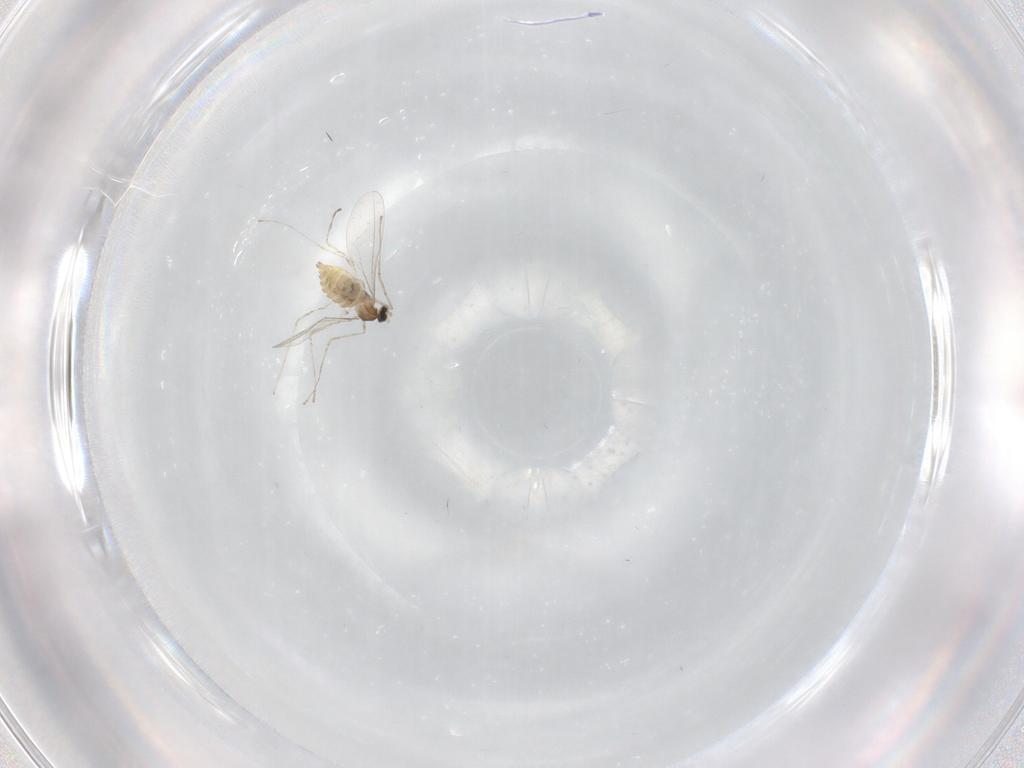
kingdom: Animalia
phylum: Arthropoda
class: Insecta
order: Diptera
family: Cecidomyiidae
